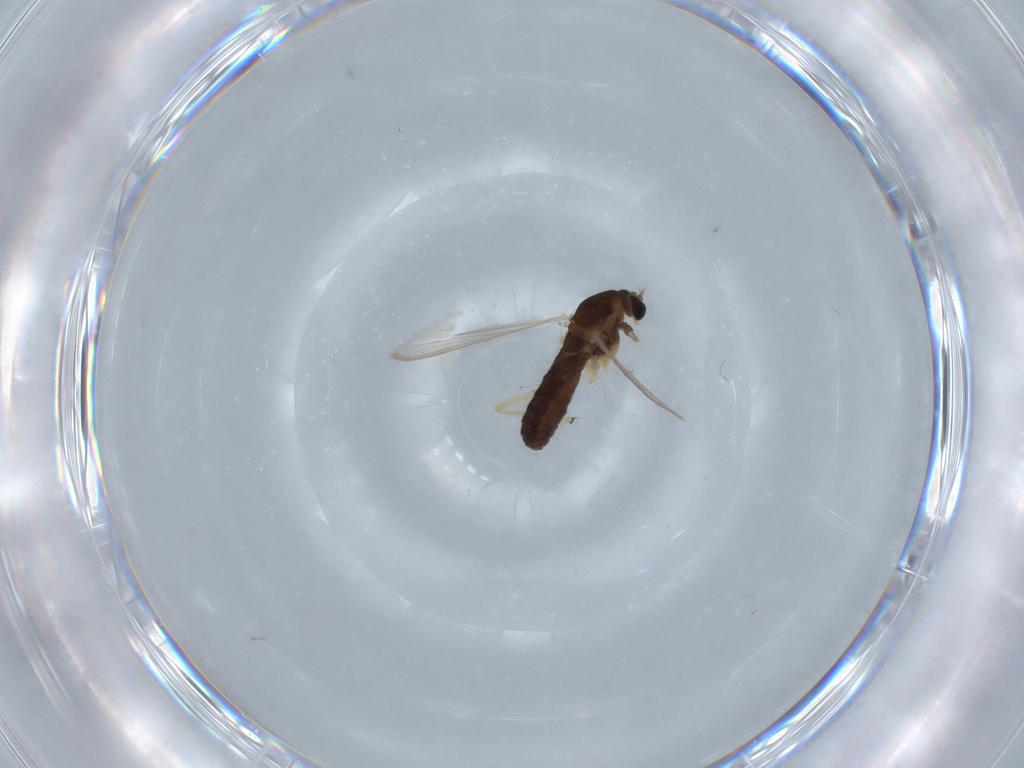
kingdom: Animalia
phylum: Arthropoda
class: Insecta
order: Diptera
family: Chironomidae
